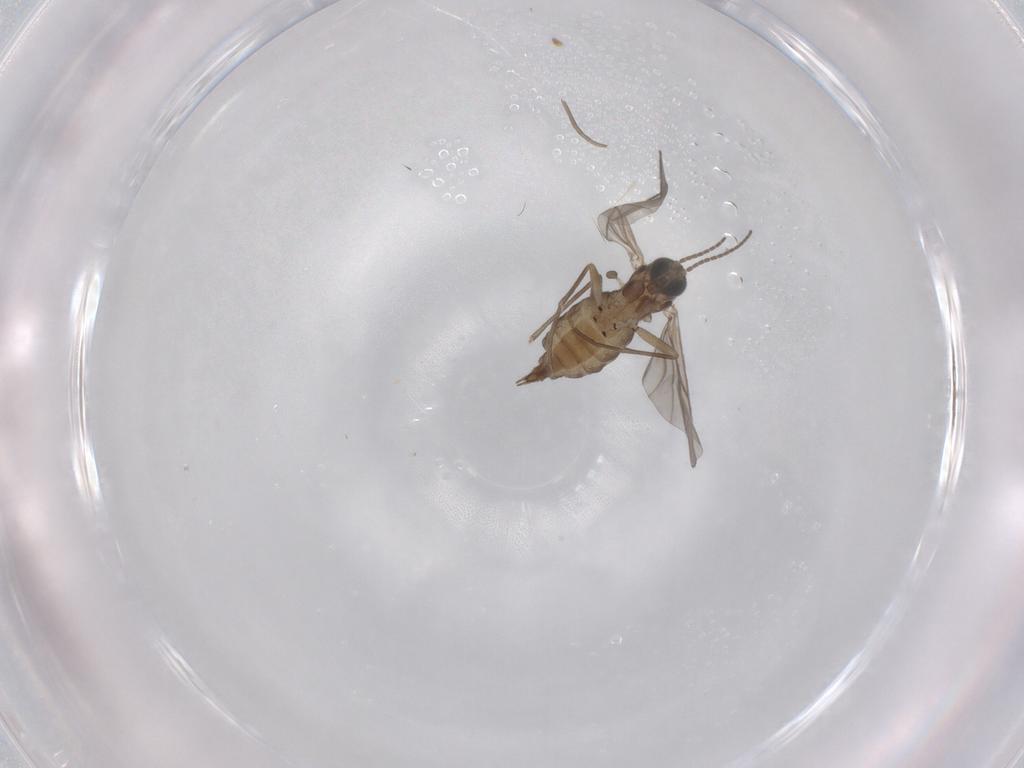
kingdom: Animalia
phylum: Arthropoda
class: Insecta
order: Diptera
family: Sciaridae
